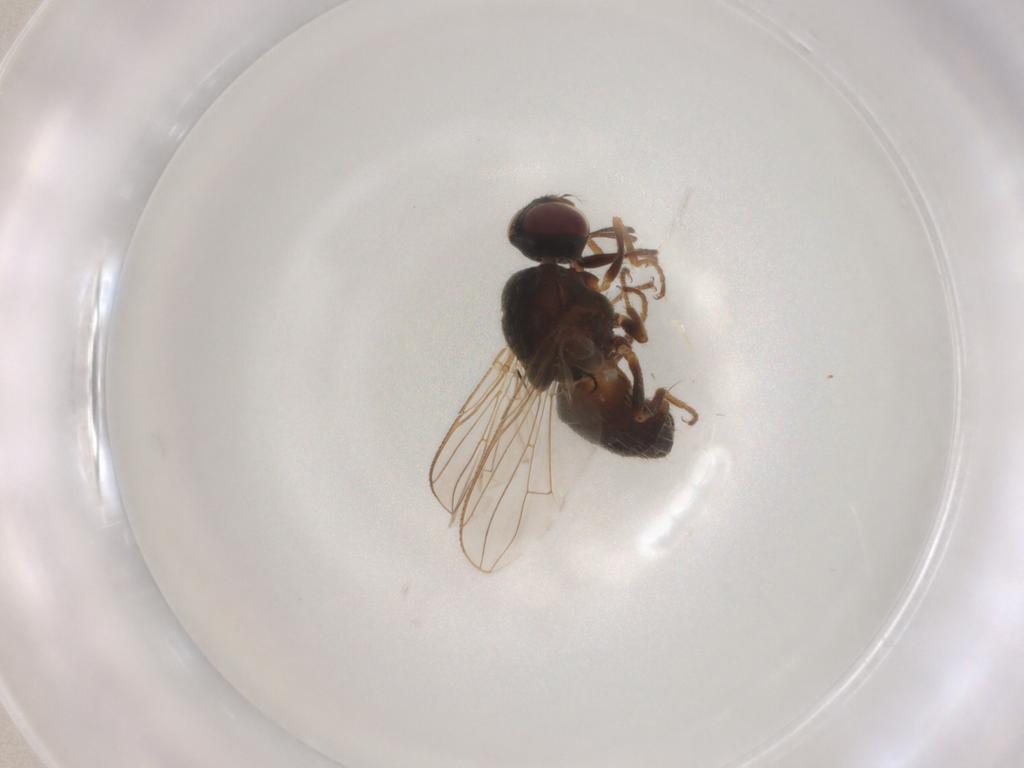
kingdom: Animalia
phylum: Arthropoda
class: Insecta
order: Diptera
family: Muscidae
